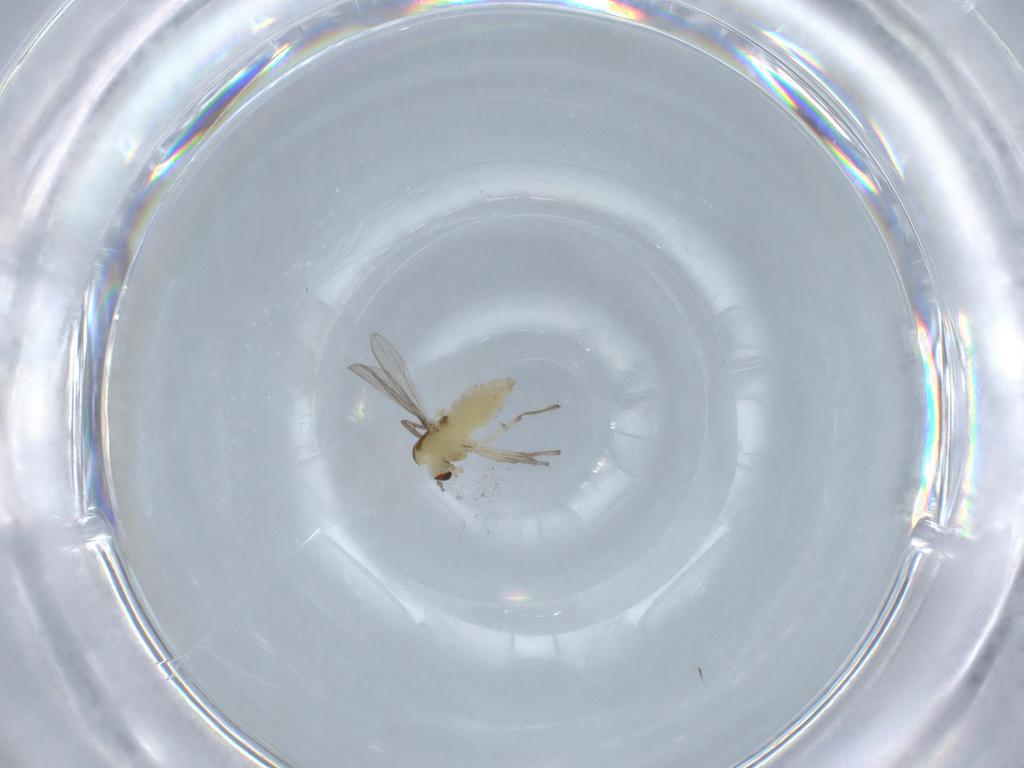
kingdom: Animalia
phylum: Arthropoda
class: Insecta
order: Diptera
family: Chironomidae
